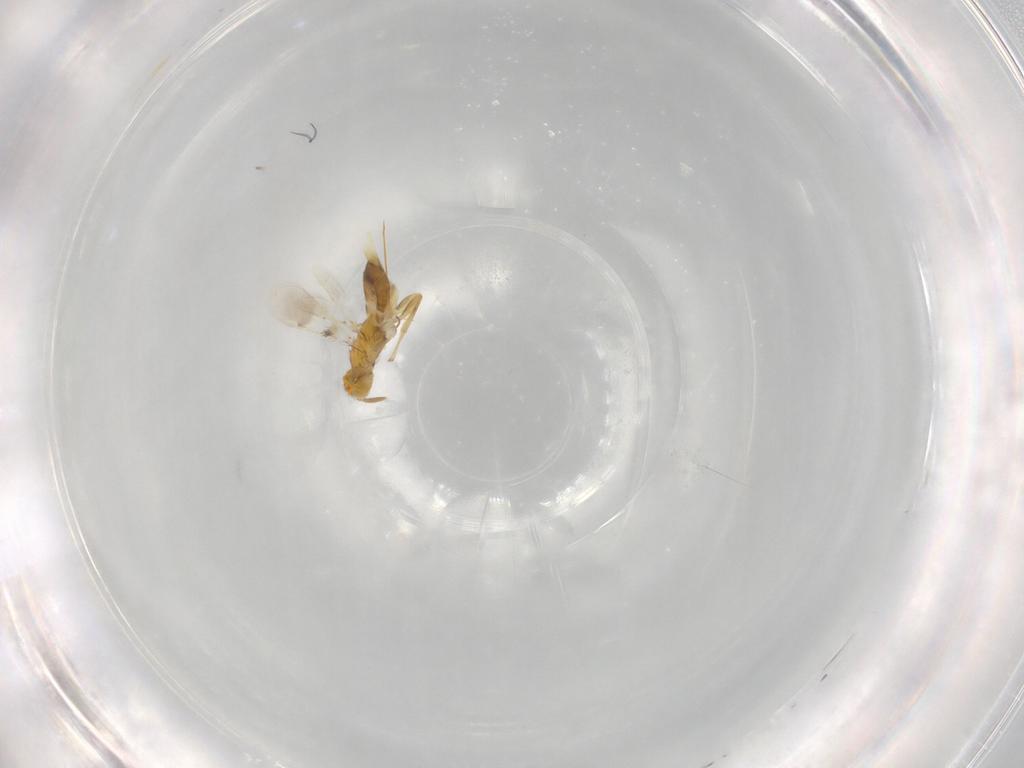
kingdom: Animalia
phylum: Arthropoda
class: Insecta
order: Hymenoptera
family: Aphelinidae
